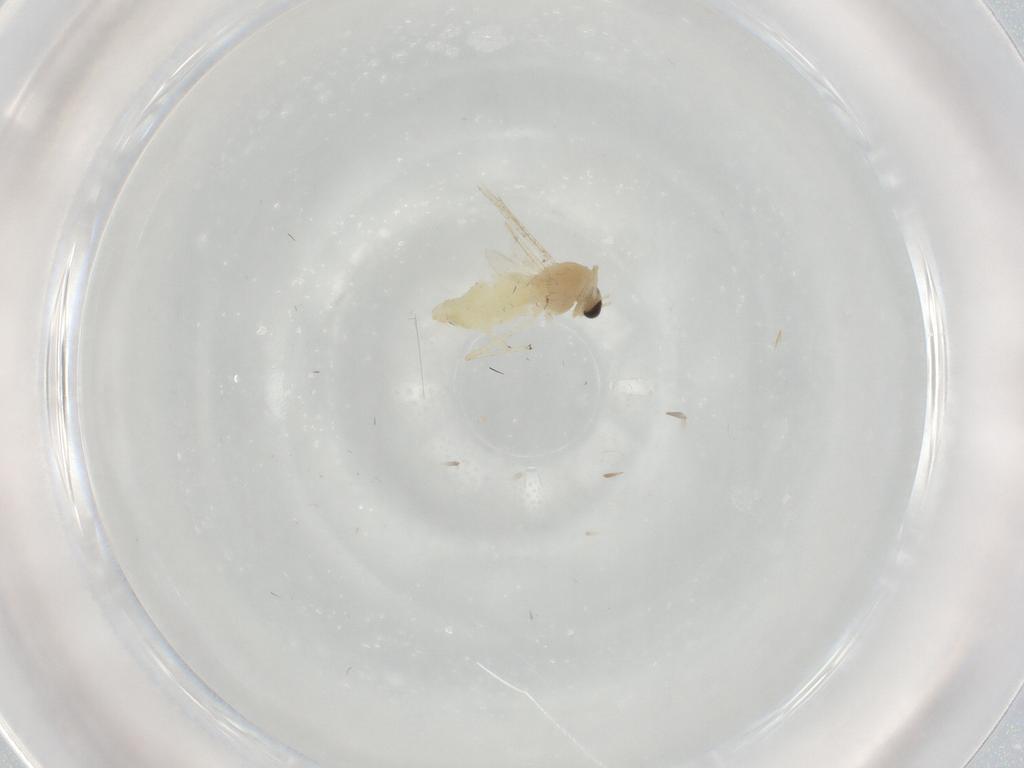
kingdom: Animalia
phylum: Arthropoda
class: Insecta
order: Diptera
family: Chironomidae
